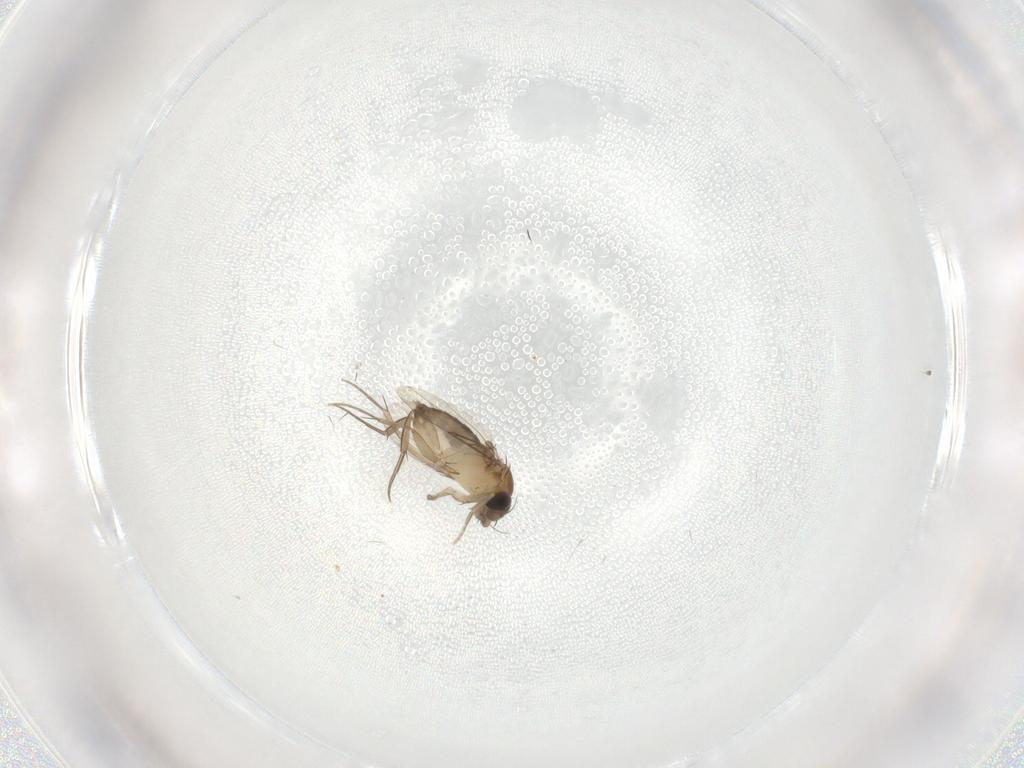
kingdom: Animalia
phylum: Arthropoda
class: Insecta
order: Diptera
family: Phoridae
